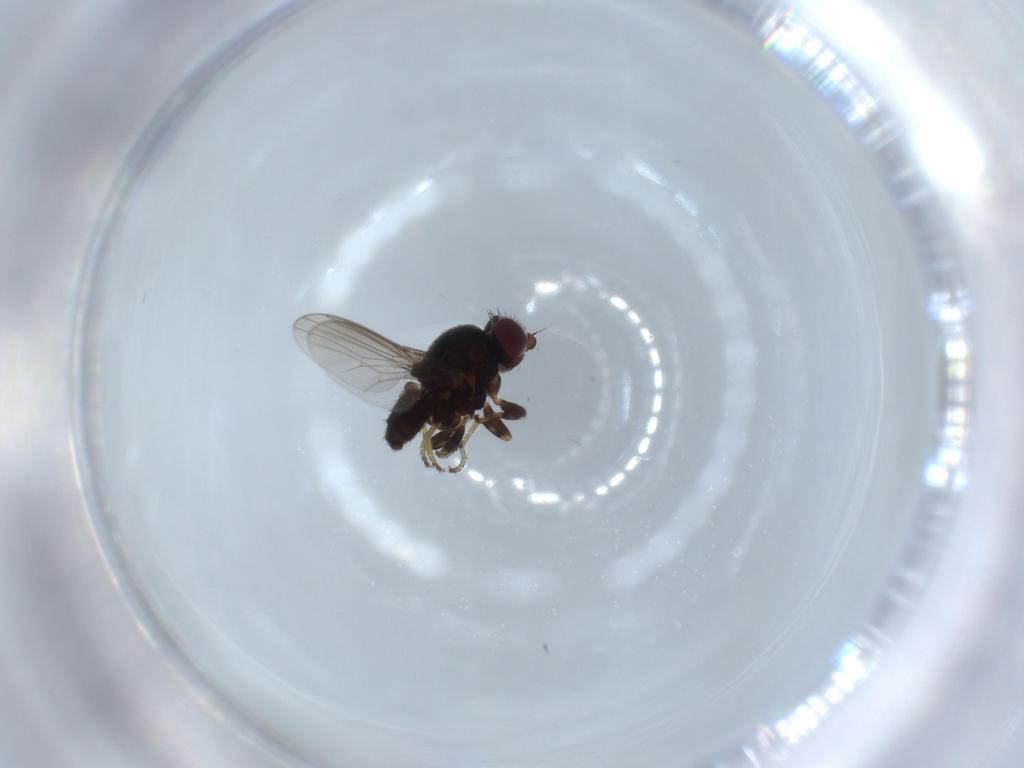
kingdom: Animalia
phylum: Arthropoda
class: Insecta
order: Diptera
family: Chloropidae
